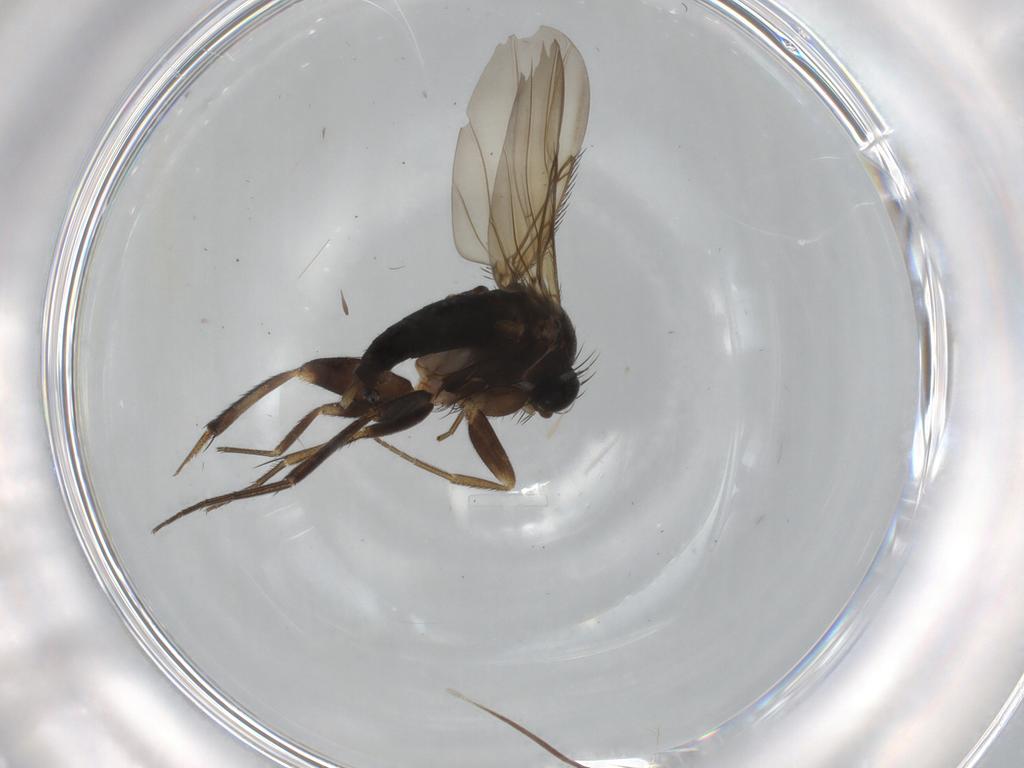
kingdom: Animalia
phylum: Arthropoda
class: Insecta
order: Diptera
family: Phoridae
